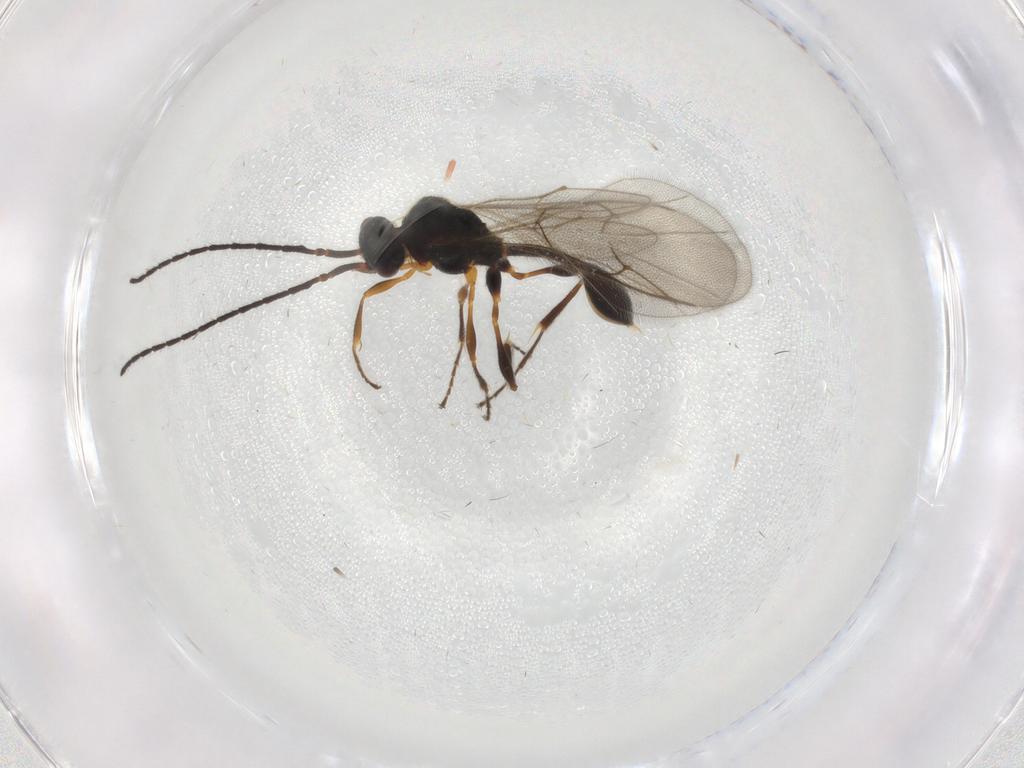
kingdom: Animalia
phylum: Arthropoda
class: Insecta
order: Hymenoptera
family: Diapriidae
